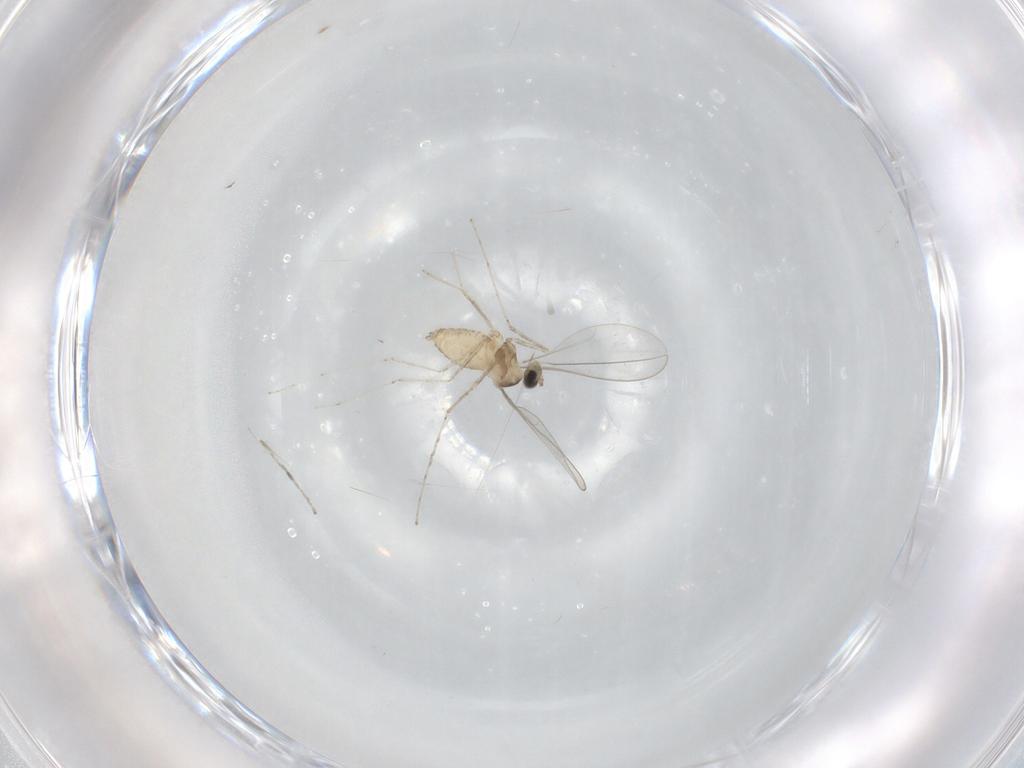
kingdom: Animalia
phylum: Arthropoda
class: Insecta
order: Diptera
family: Cecidomyiidae
